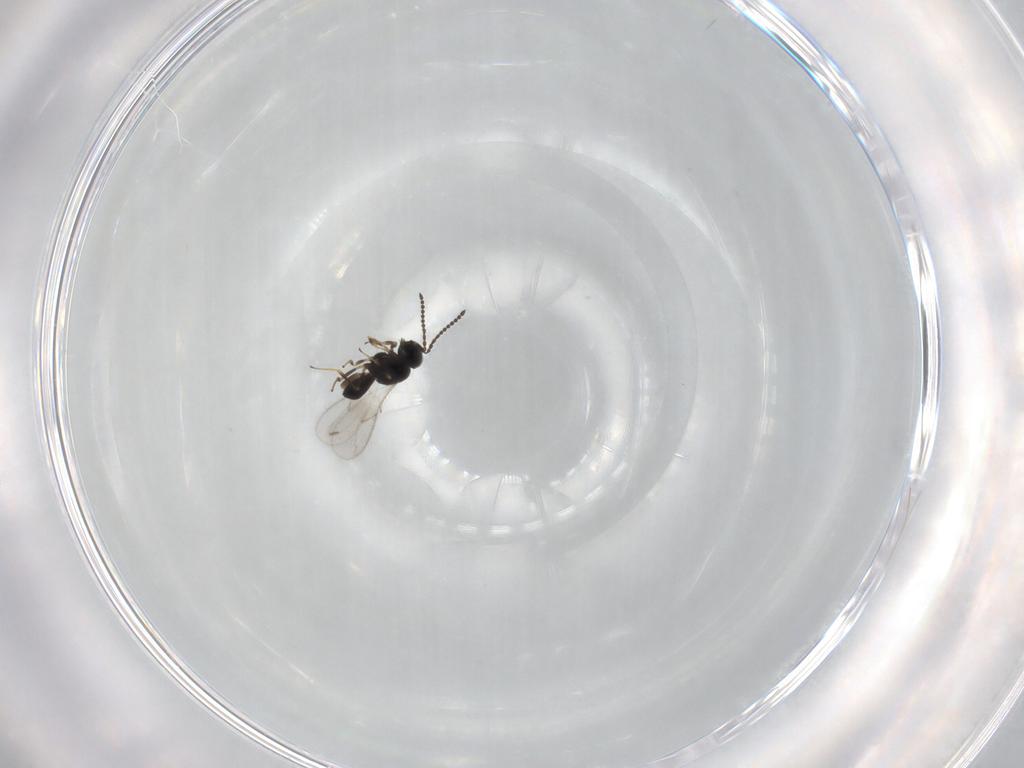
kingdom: Animalia
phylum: Arthropoda
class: Insecta
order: Hymenoptera
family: Scelionidae
